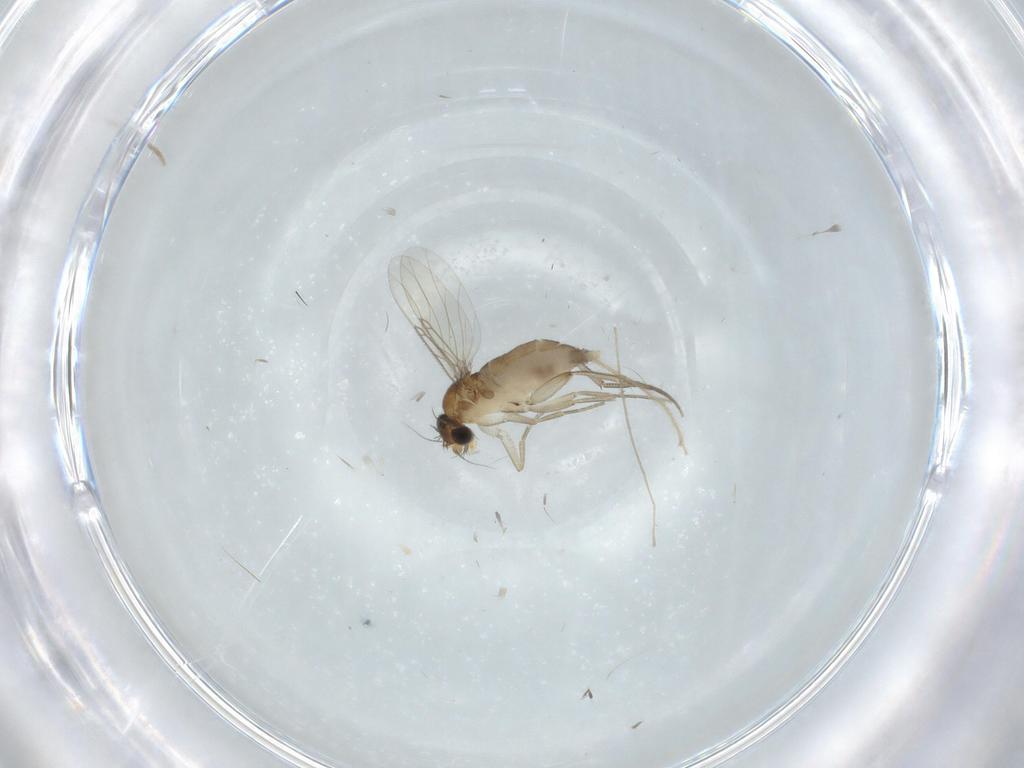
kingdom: Animalia
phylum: Arthropoda
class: Insecta
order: Diptera
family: Phoridae
